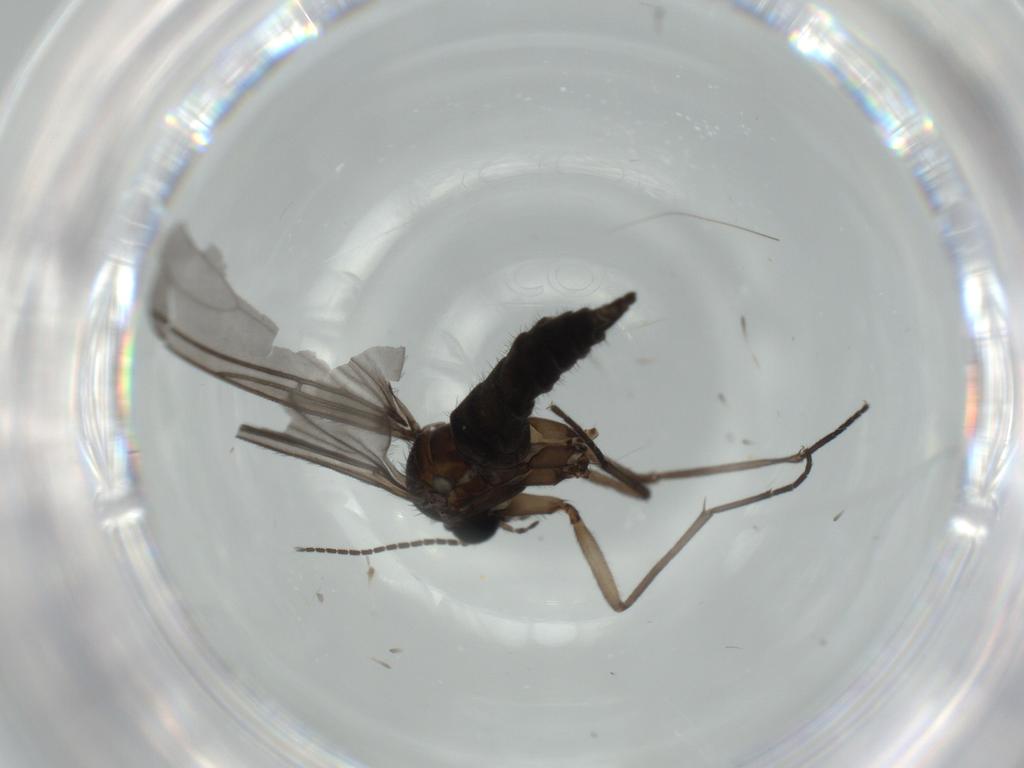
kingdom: Animalia
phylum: Arthropoda
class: Insecta
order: Diptera
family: Sciaridae
